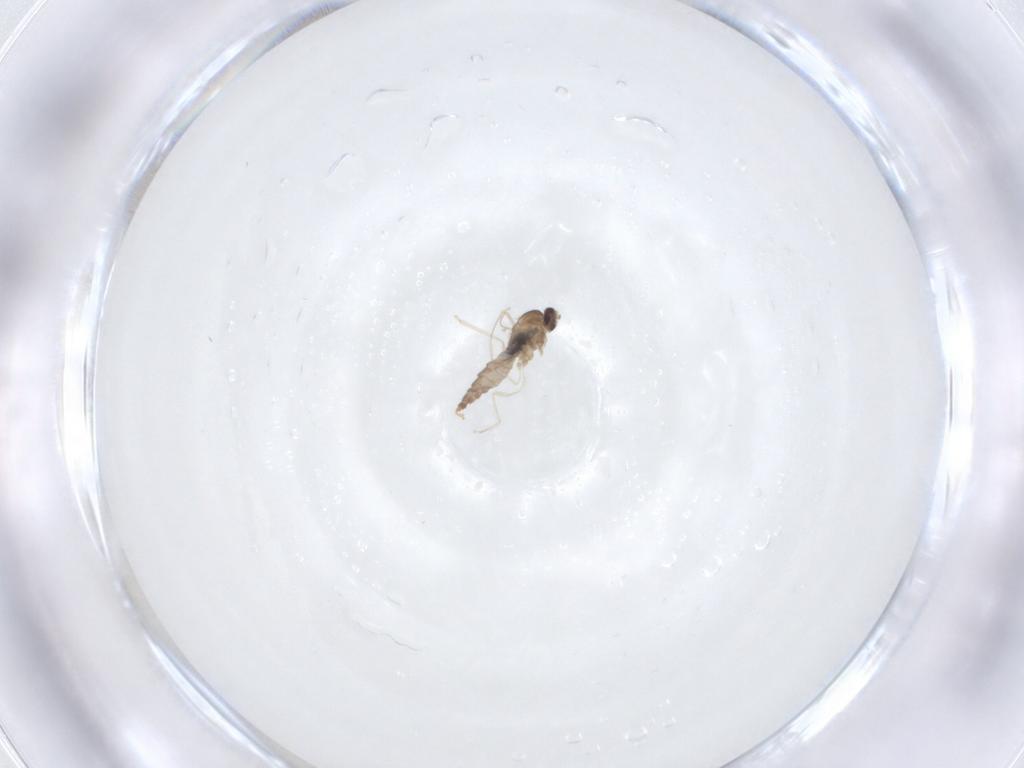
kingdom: Animalia
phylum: Arthropoda
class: Insecta
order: Diptera
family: Cecidomyiidae
